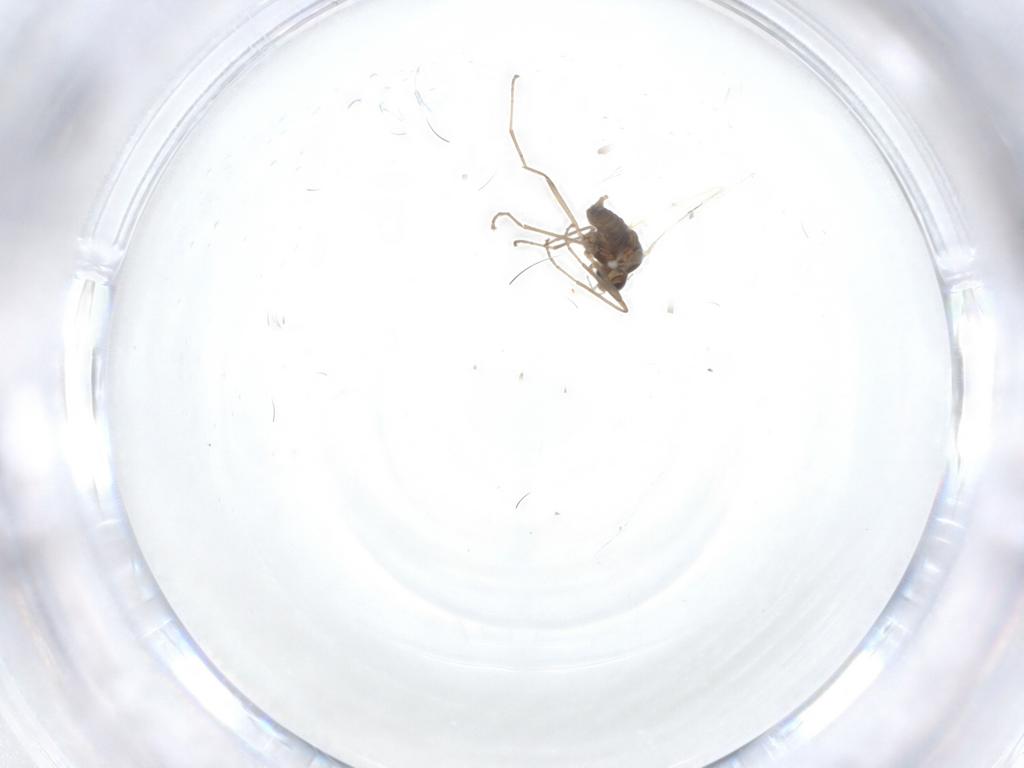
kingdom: Animalia
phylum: Arthropoda
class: Insecta
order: Diptera
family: Cecidomyiidae
